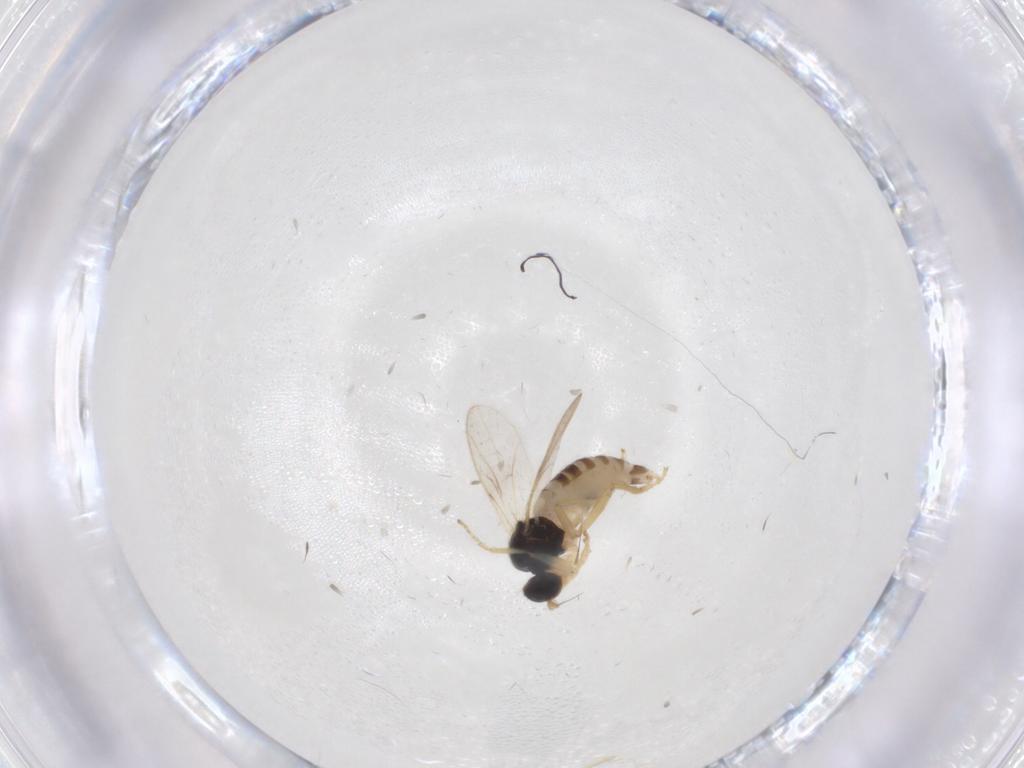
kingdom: Animalia
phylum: Arthropoda
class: Insecta
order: Diptera
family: Hybotidae
